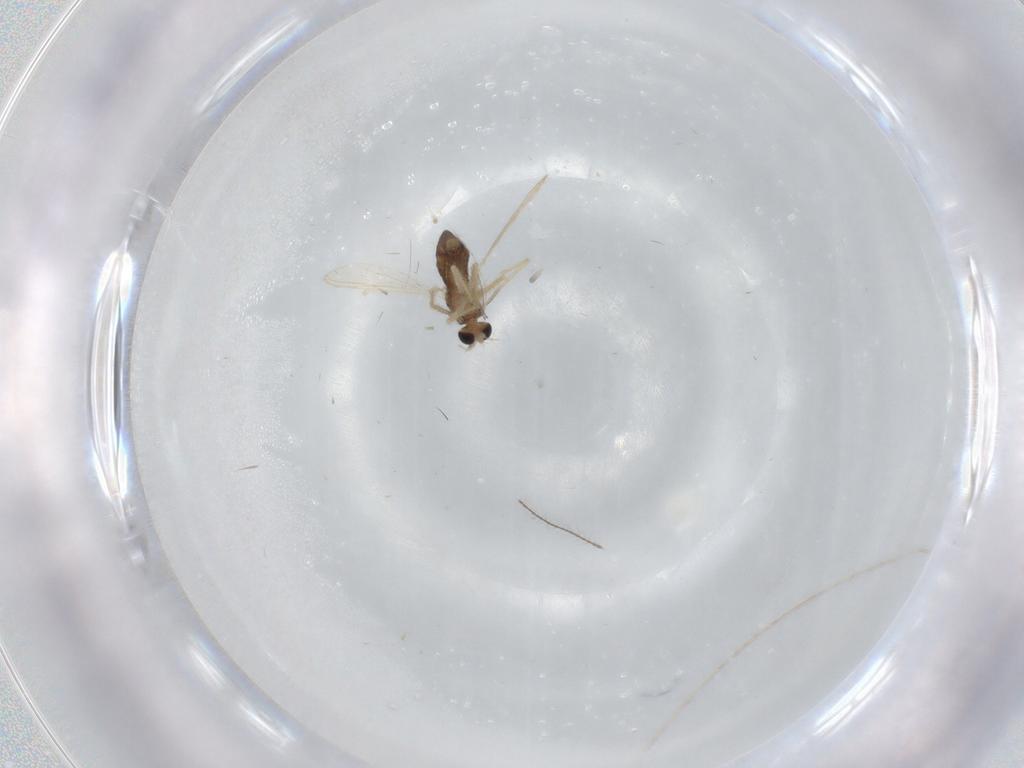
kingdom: Animalia
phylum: Arthropoda
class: Insecta
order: Diptera
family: Chironomidae
